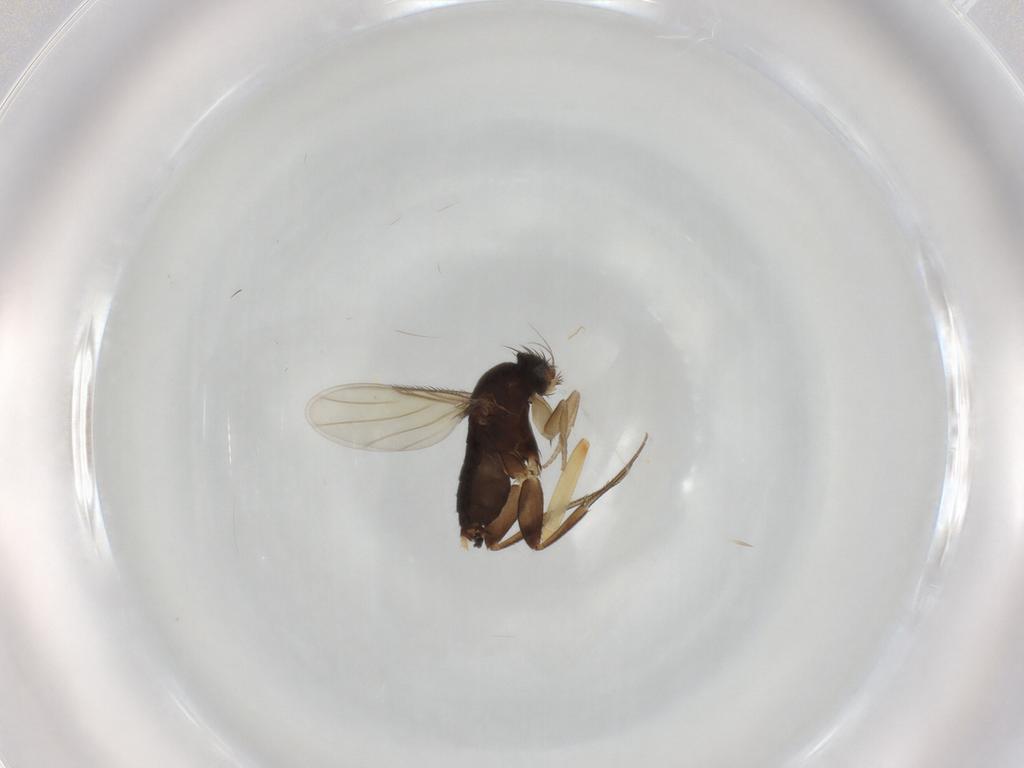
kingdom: Animalia
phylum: Arthropoda
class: Insecta
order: Diptera
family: Phoridae
